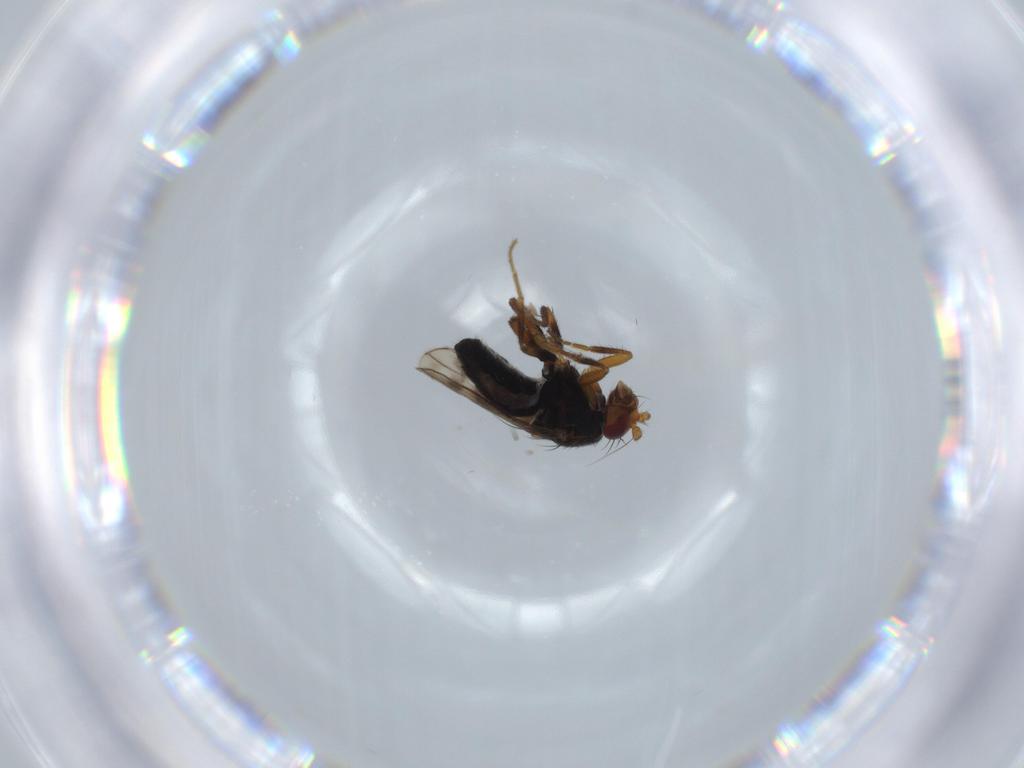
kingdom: Animalia
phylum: Arthropoda
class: Insecta
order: Diptera
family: Sphaeroceridae
